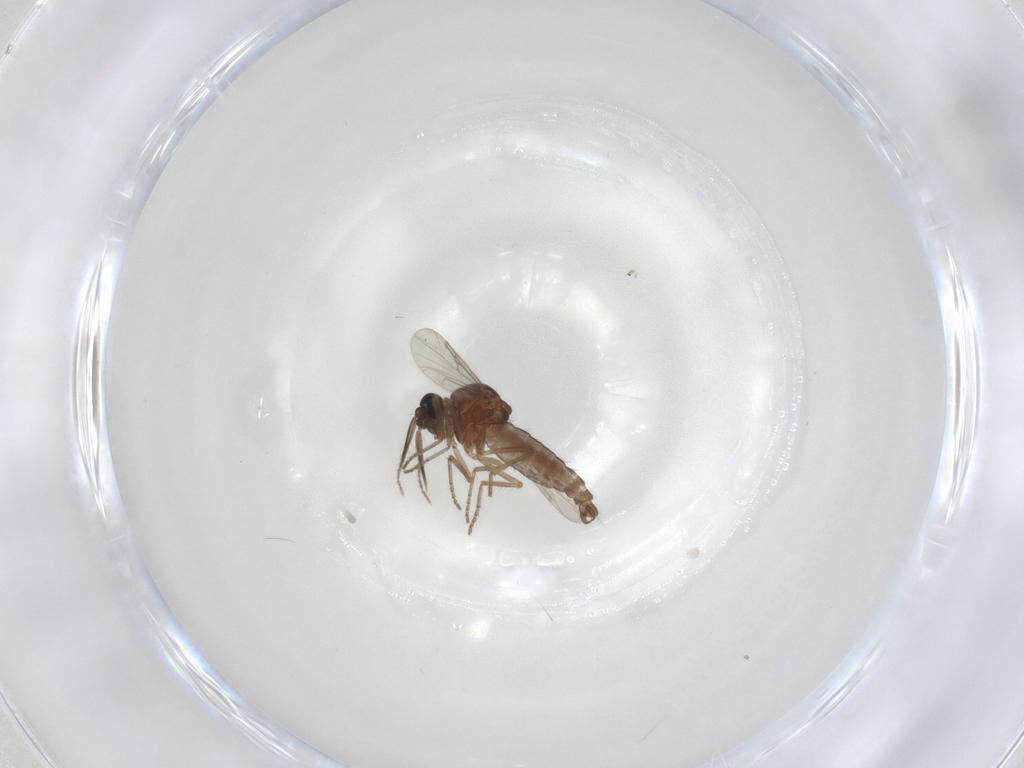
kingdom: Animalia
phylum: Arthropoda
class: Insecta
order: Diptera
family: Ceratopogonidae
